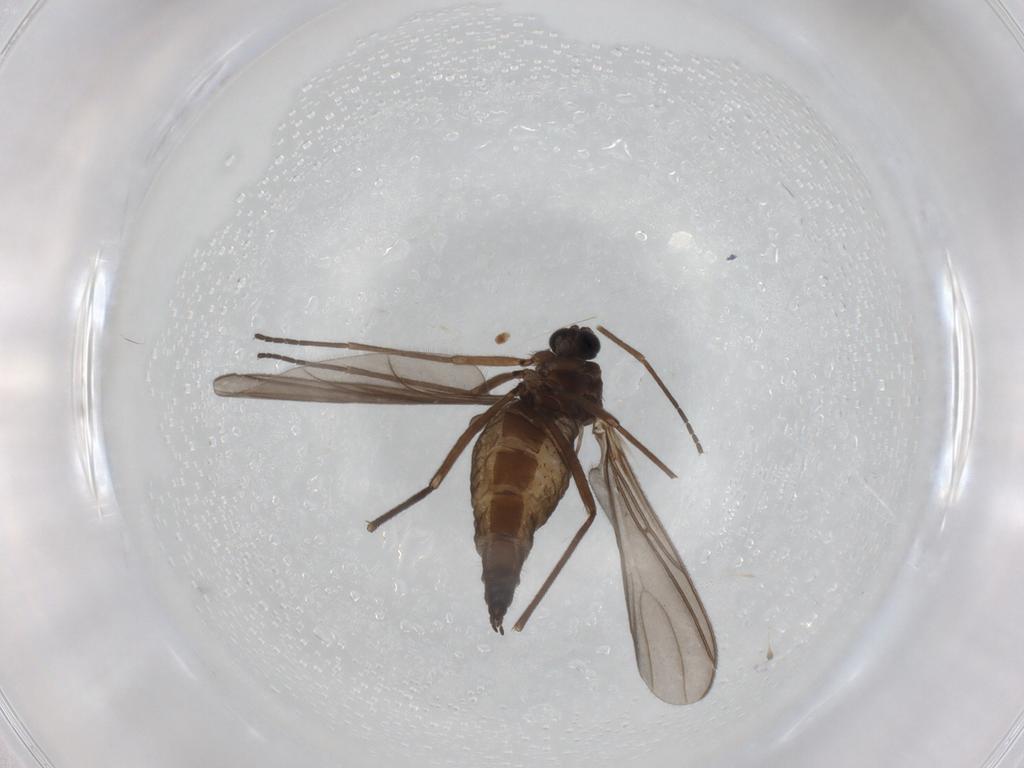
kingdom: Animalia
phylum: Arthropoda
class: Insecta
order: Diptera
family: Sciaridae
